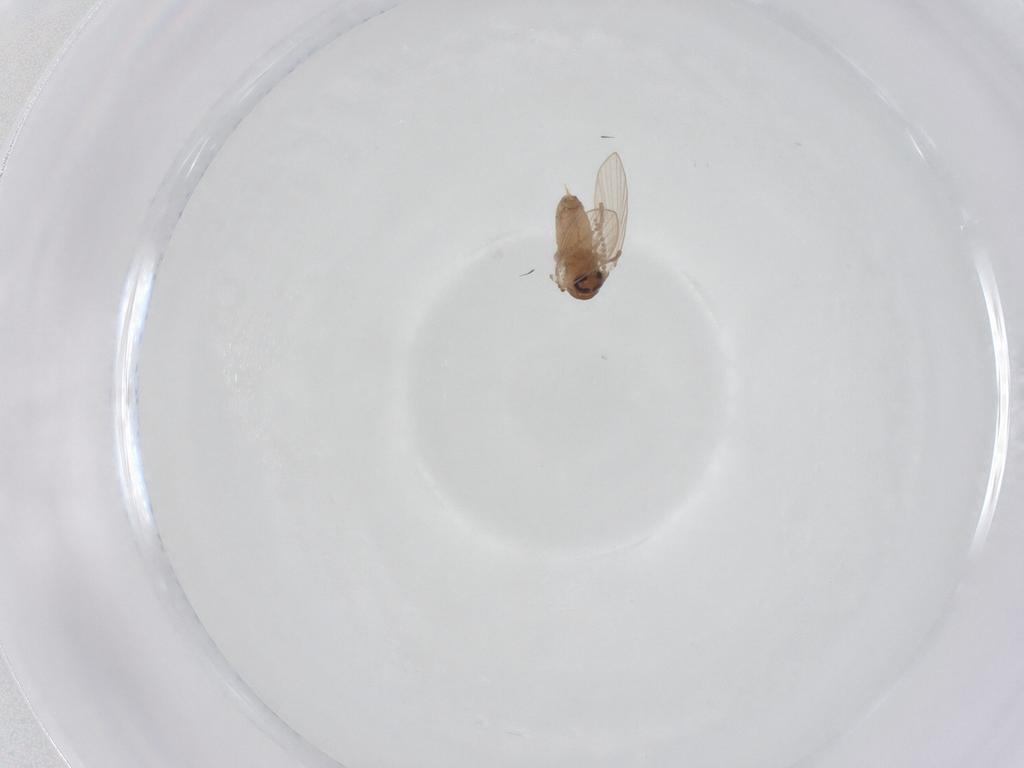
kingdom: Animalia
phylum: Arthropoda
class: Insecta
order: Diptera
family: Psychodidae
